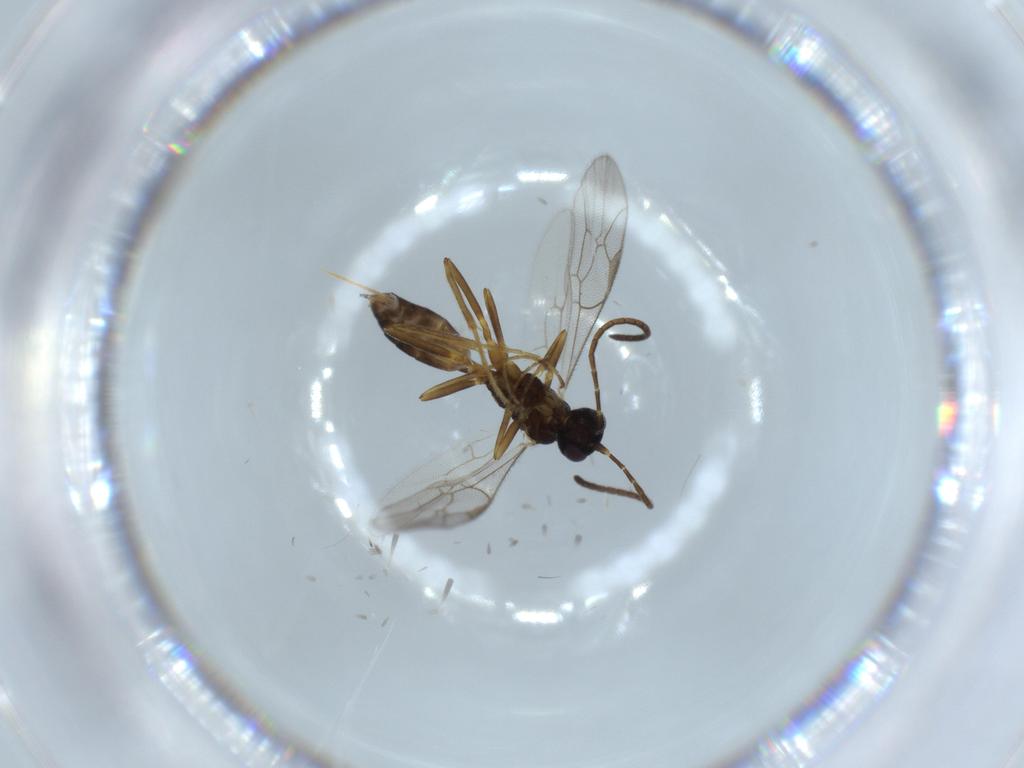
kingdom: Animalia
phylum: Arthropoda
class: Insecta
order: Hymenoptera
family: Ichneumonidae
